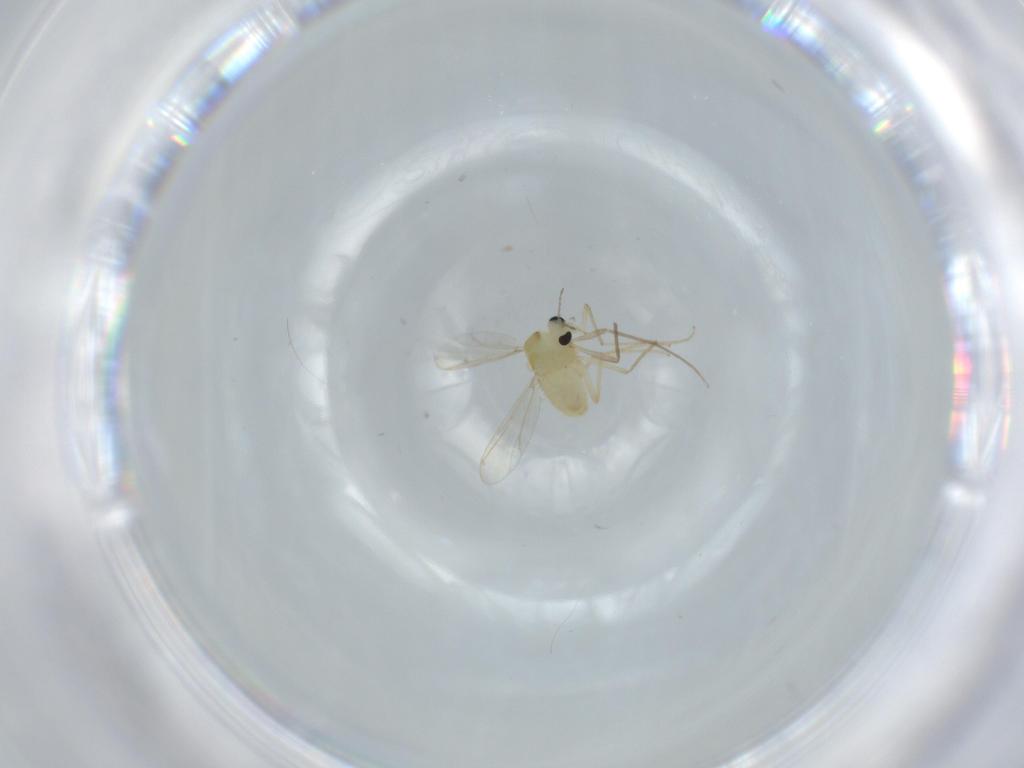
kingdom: Animalia
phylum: Arthropoda
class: Insecta
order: Diptera
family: Chironomidae
